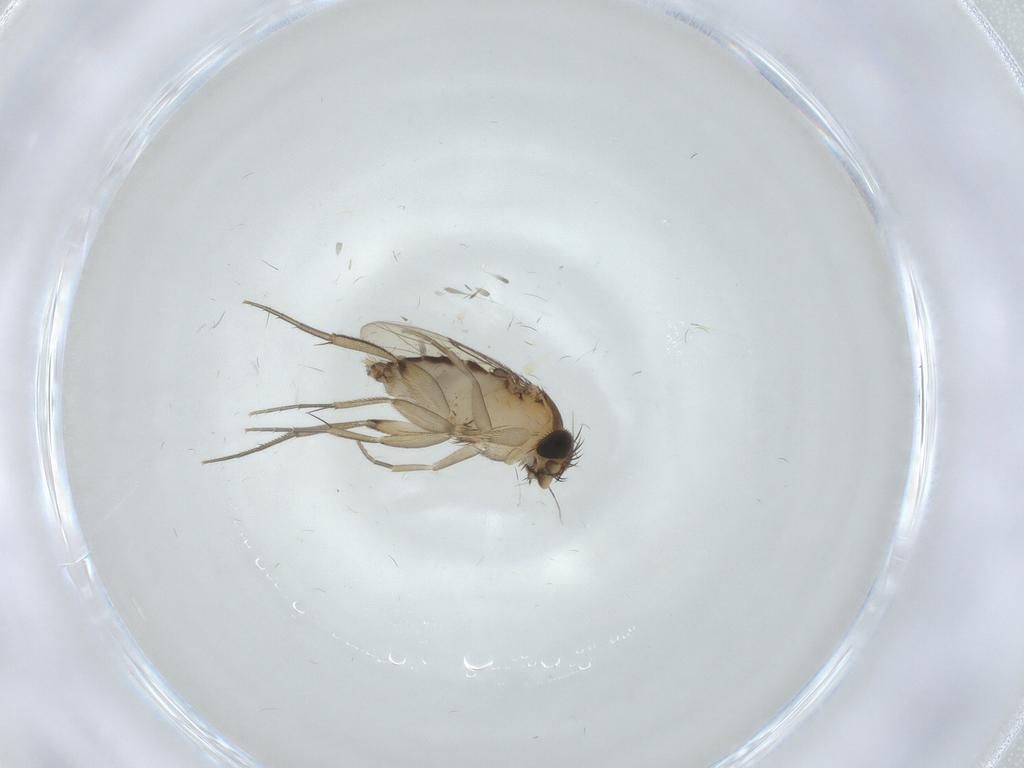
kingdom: Animalia
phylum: Arthropoda
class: Insecta
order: Diptera
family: Phoridae
